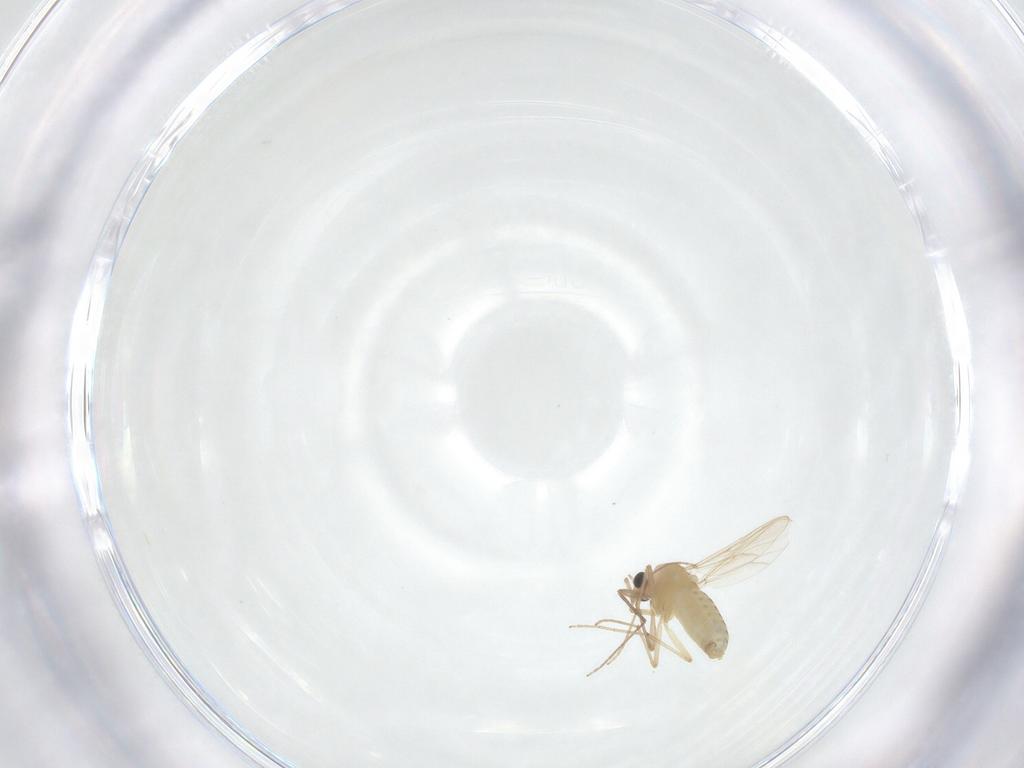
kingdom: Animalia
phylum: Arthropoda
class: Insecta
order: Diptera
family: Chironomidae
